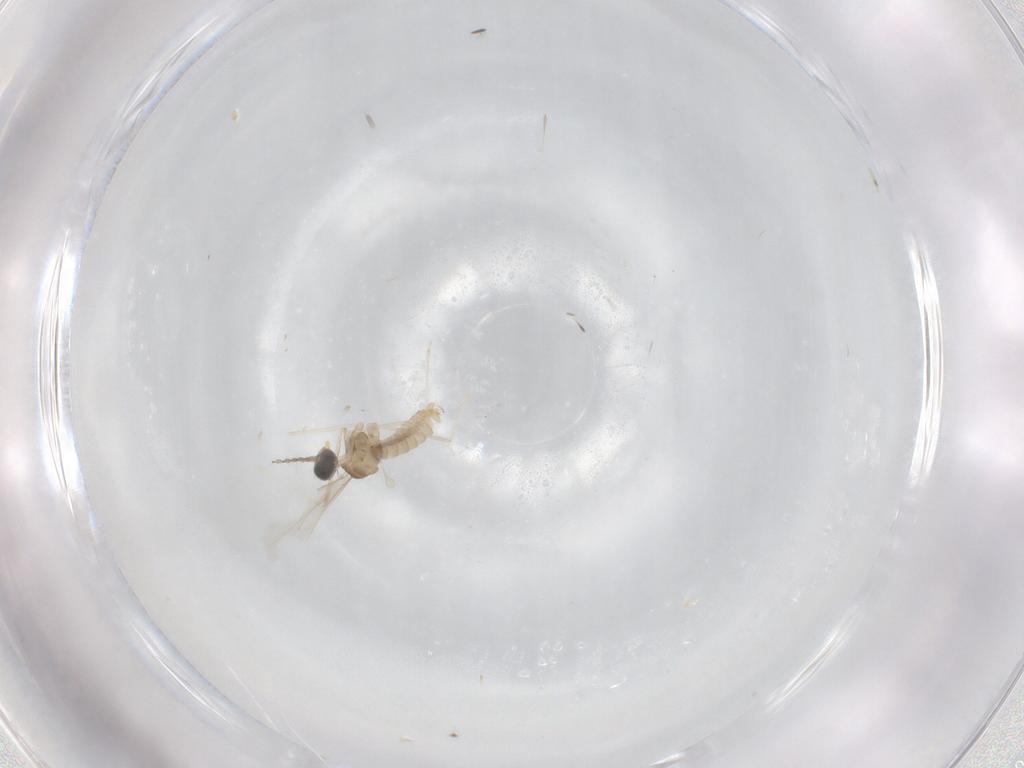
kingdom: Animalia
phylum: Arthropoda
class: Insecta
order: Diptera
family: Tephritidae
